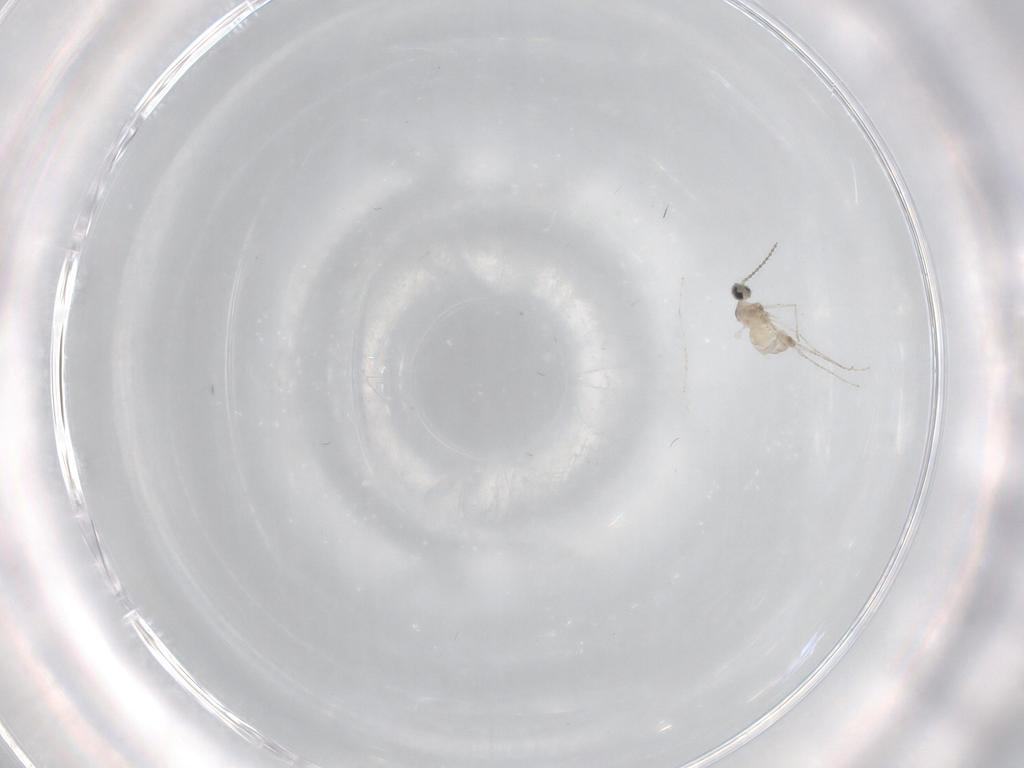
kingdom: Animalia
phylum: Arthropoda
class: Insecta
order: Diptera
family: Cecidomyiidae
